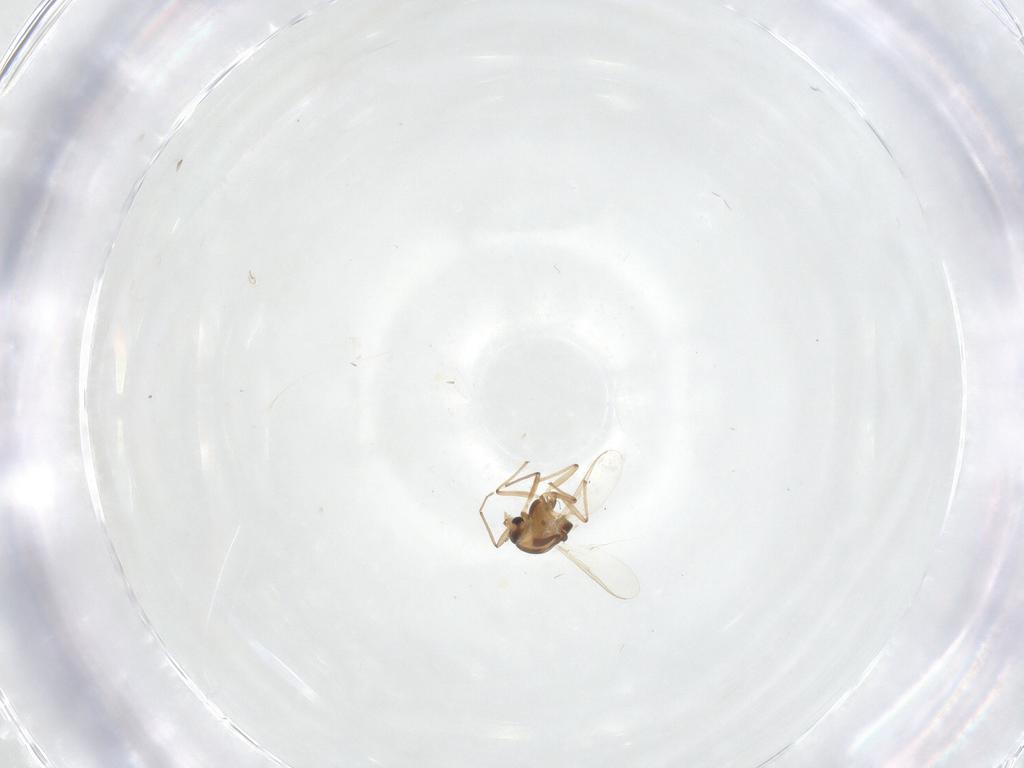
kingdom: Animalia
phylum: Arthropoda
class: Insecta
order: Diptera
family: Chironomidae
